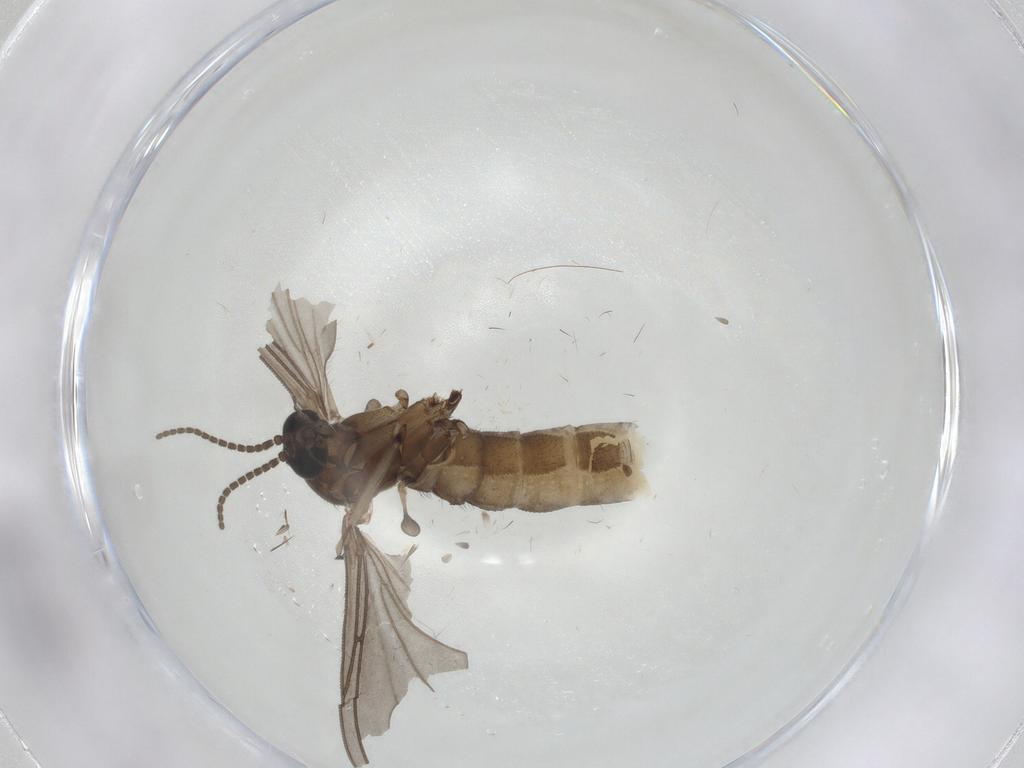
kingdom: Animalia
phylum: Arthropoda
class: Insecta
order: Diptera
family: Sciaridae
